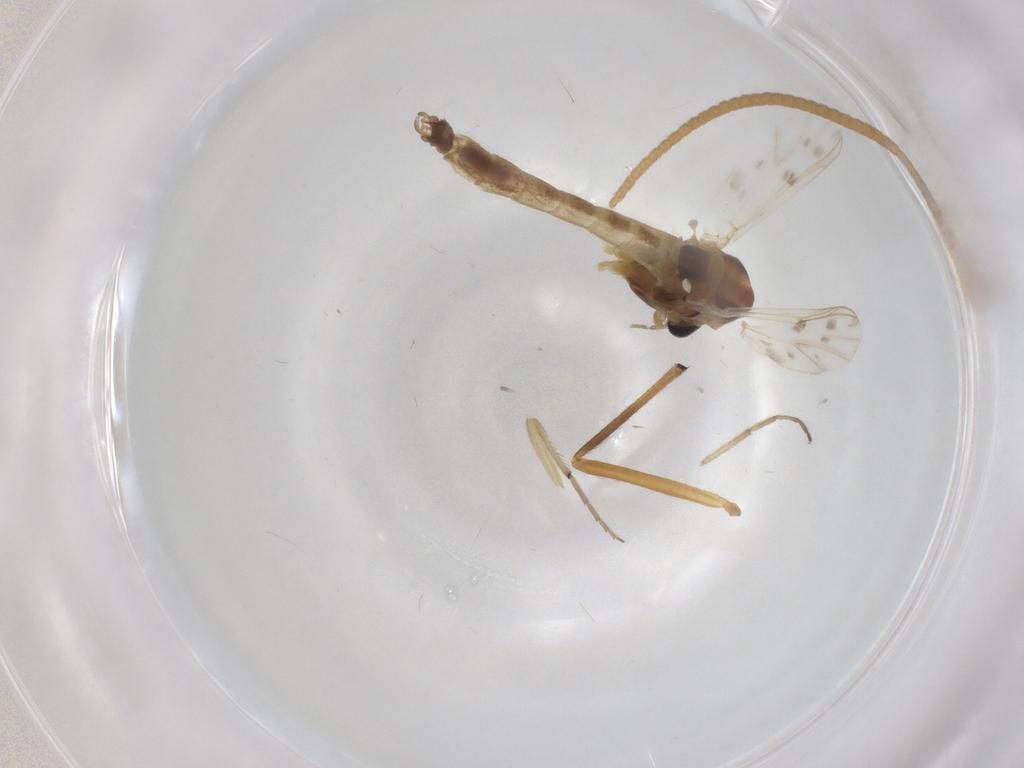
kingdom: Animalia
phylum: Arthropoda
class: Insecta
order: Diptera
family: Chironomidae
